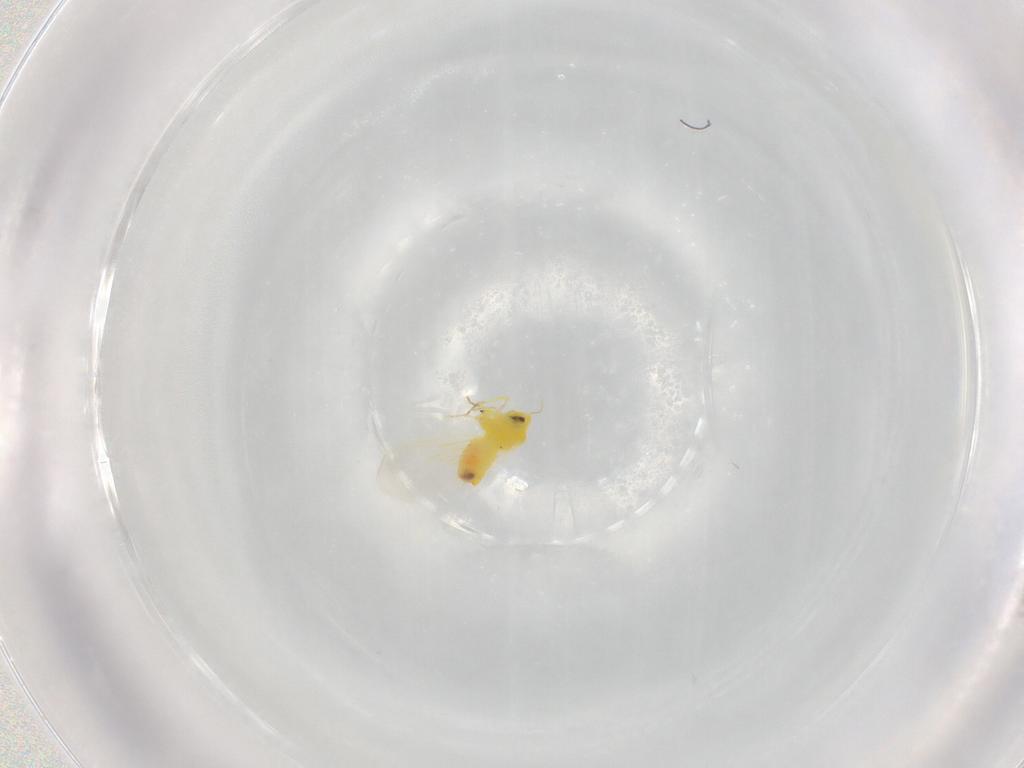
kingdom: Animalia
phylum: Arthropoda
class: Insecta
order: Hemiptera
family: Aleyrodidae
